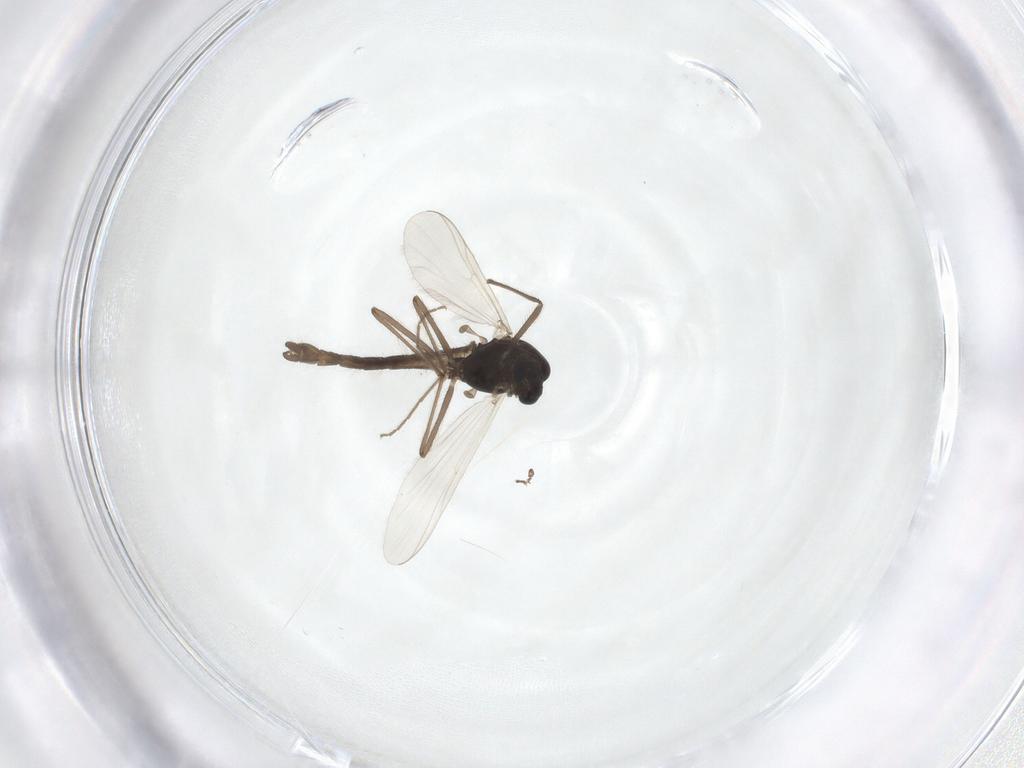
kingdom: Animalia
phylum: Arthropoda
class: Insecta
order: Diptera
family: Chironomidae
